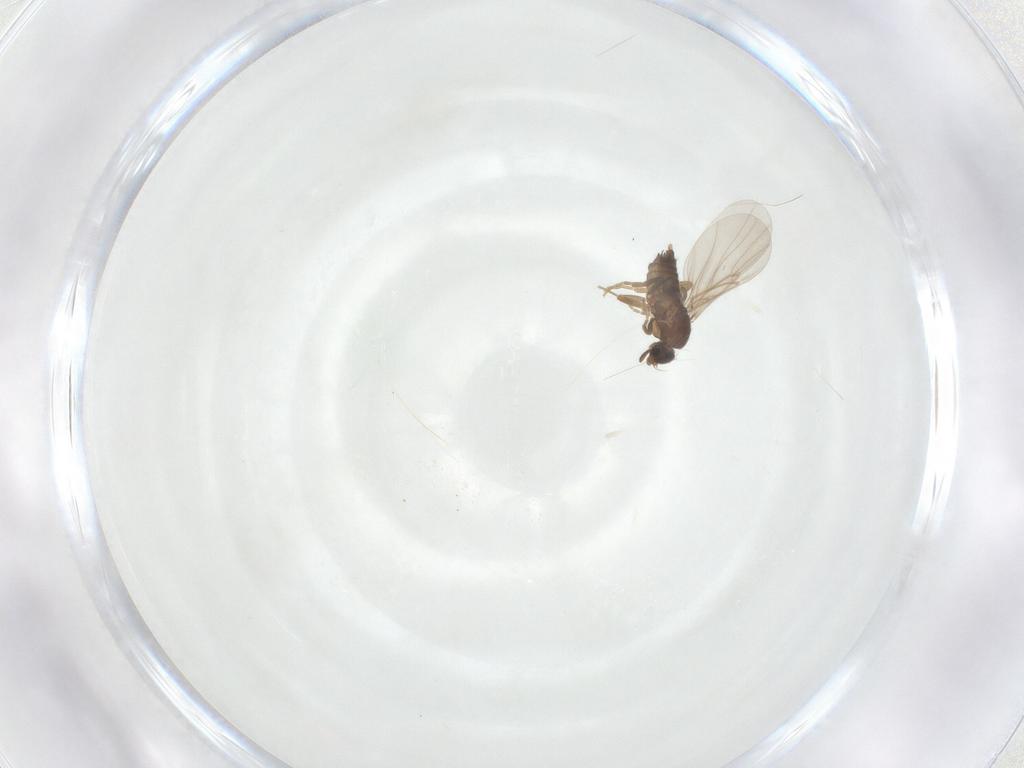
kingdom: Animalia
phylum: Arthropoda
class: Insecta
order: Diptera
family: Phoridae
